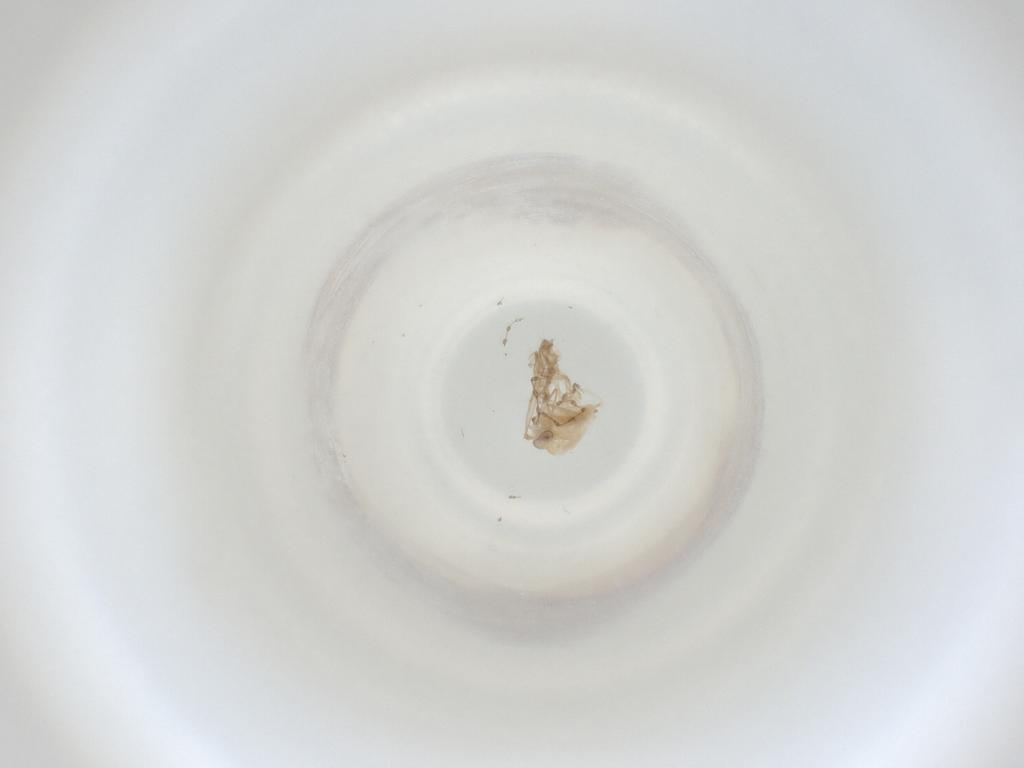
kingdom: Animalia
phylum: Arthropoda
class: Insecta
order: Diptera
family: Cecidomyiidae
